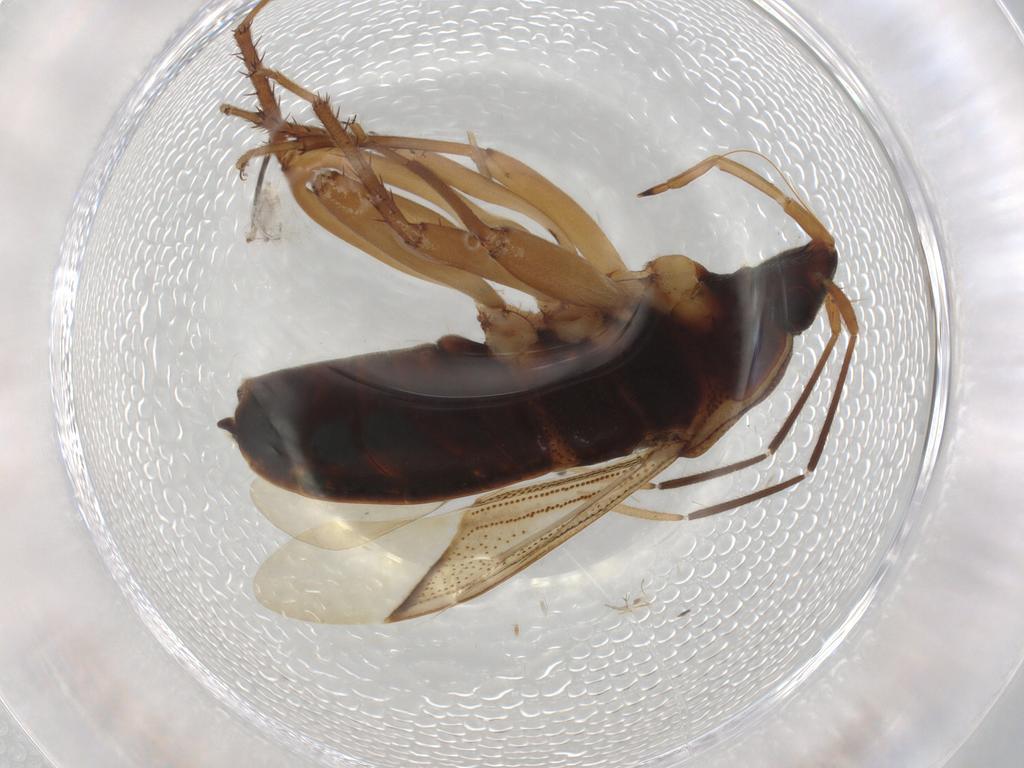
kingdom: Animalia
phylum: Arthropoda
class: Insecta
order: Hemiptera
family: Rhyparochromidae
